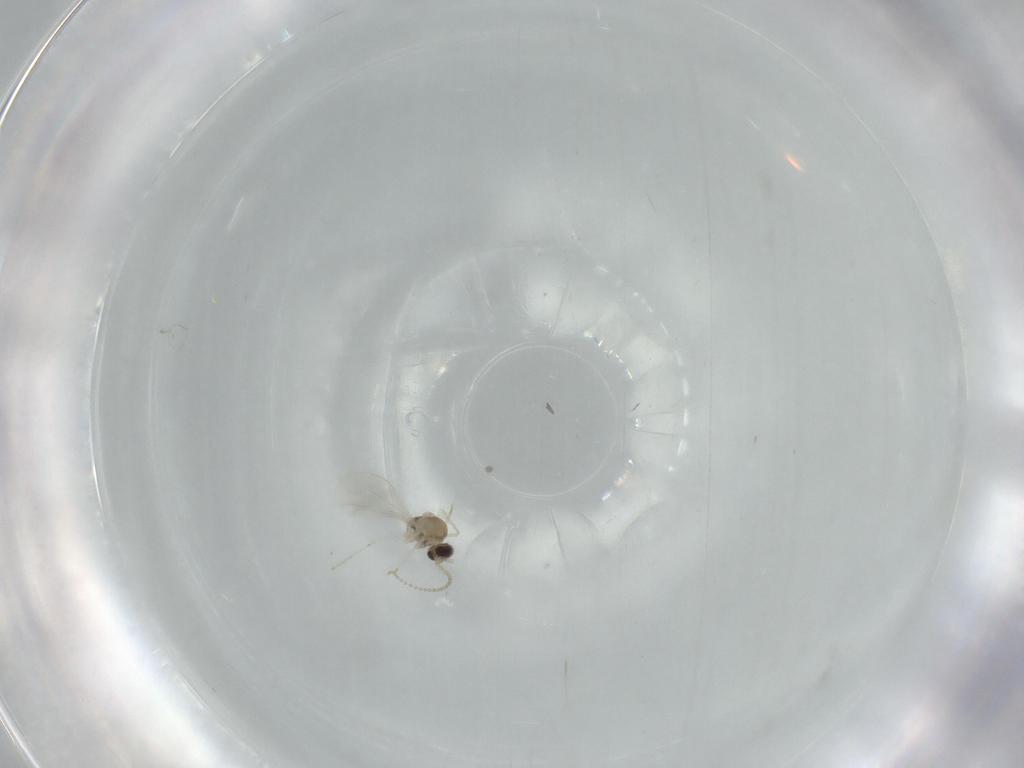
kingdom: Animalia
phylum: Arthropoda
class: Insecta
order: Diptera
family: Cecidomyiidae
